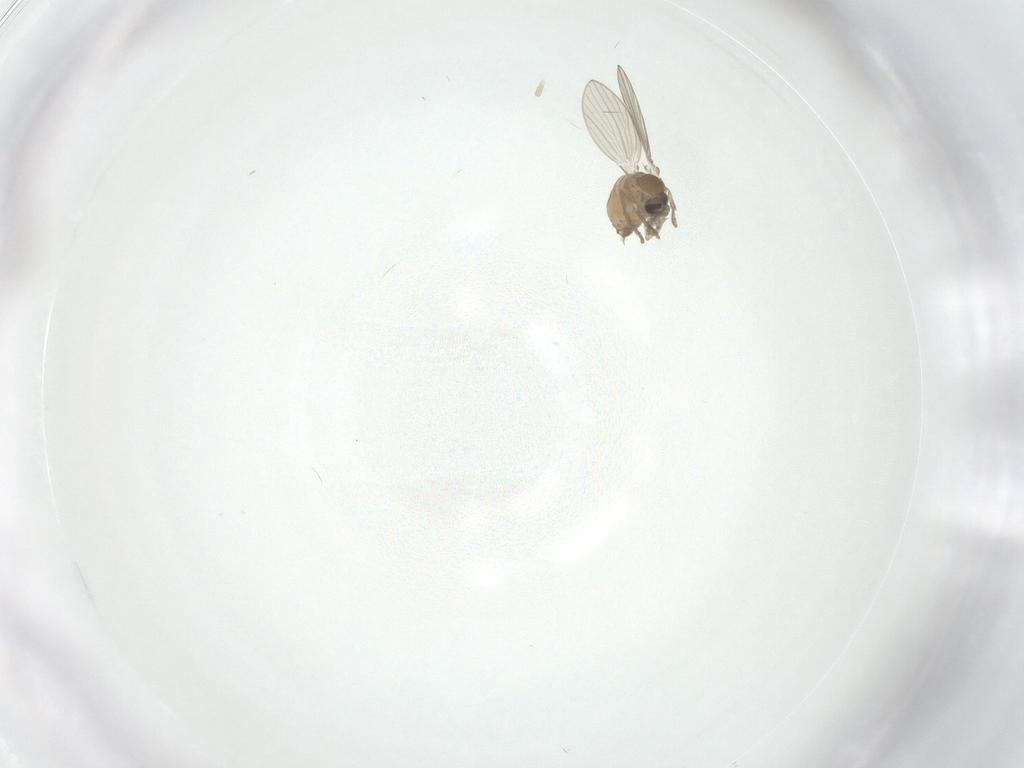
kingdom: Animalia
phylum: Arthropoda
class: Insecta
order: Diptera
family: Psychodidae
